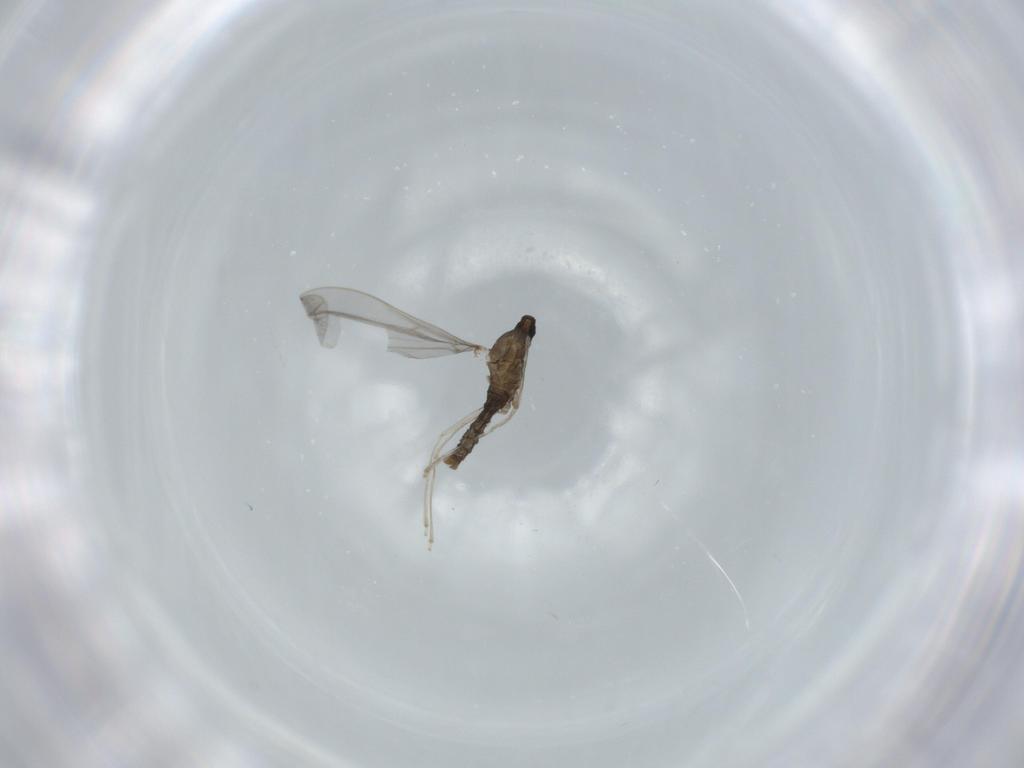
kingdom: Animalia
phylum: Arthropoda
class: Insecta
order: Diptera
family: Cecidomyiidae
